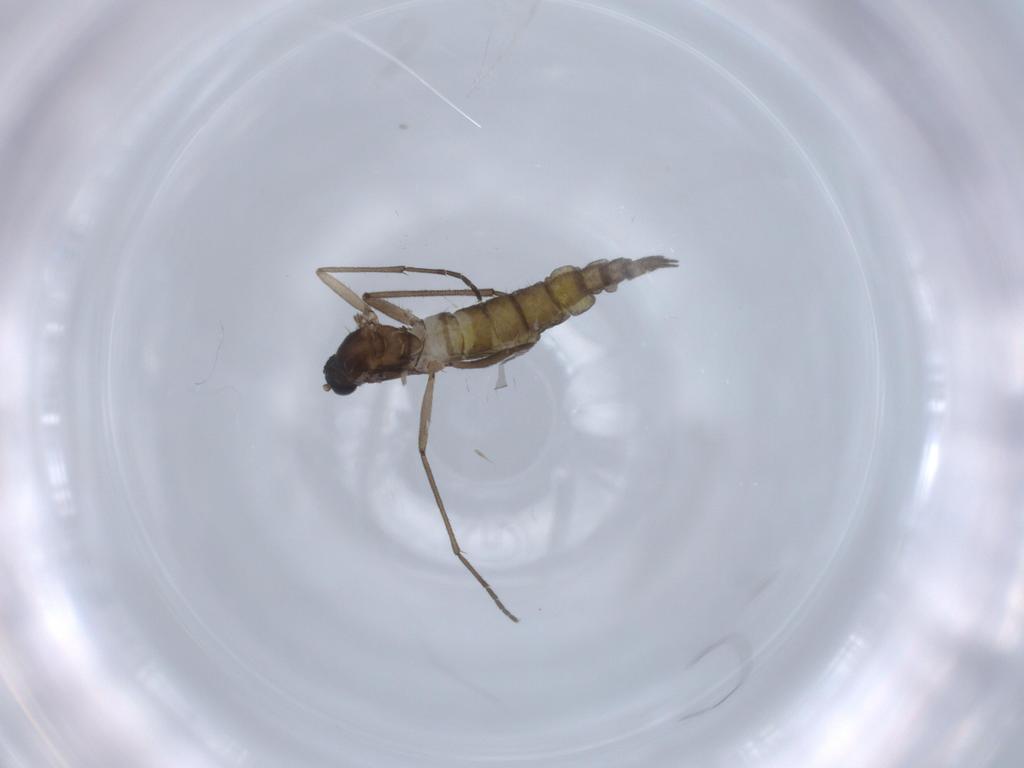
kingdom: Animalia
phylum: Arthropoda
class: Insecta
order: Diptera
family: Sciaridae
